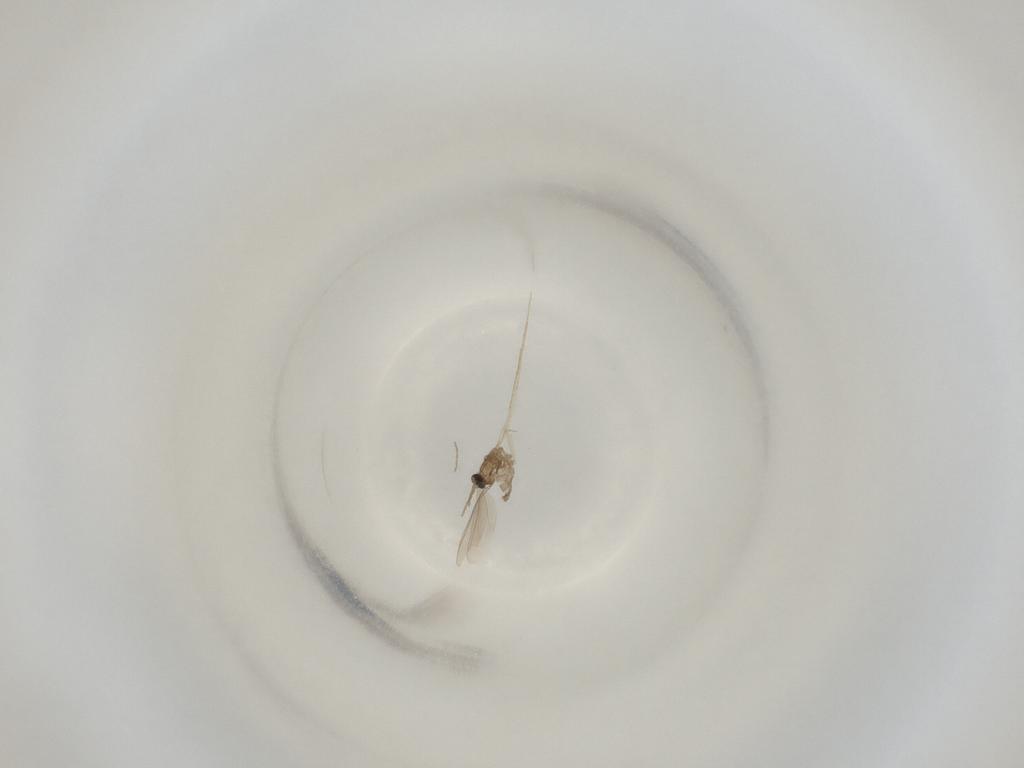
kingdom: Animalia
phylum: Arthropoda
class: Insecta
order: Diptera
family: Cecidomyiidae
